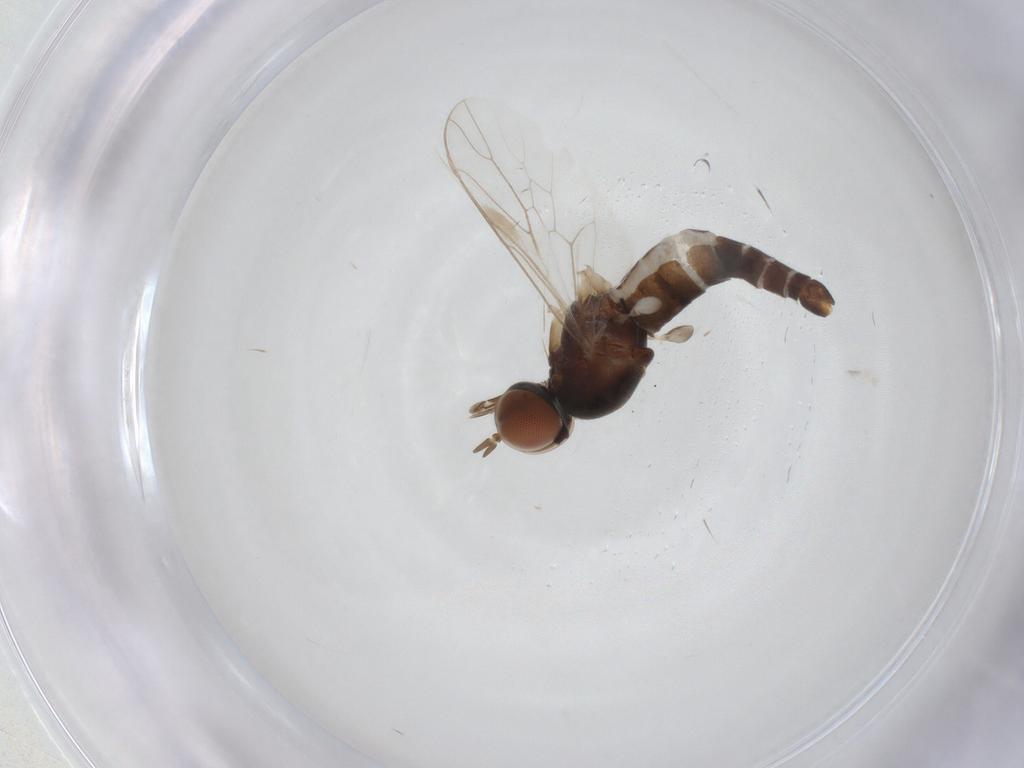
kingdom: Animalia
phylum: Arthropoda
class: Insecta
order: Diptera
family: Scenopinidae
